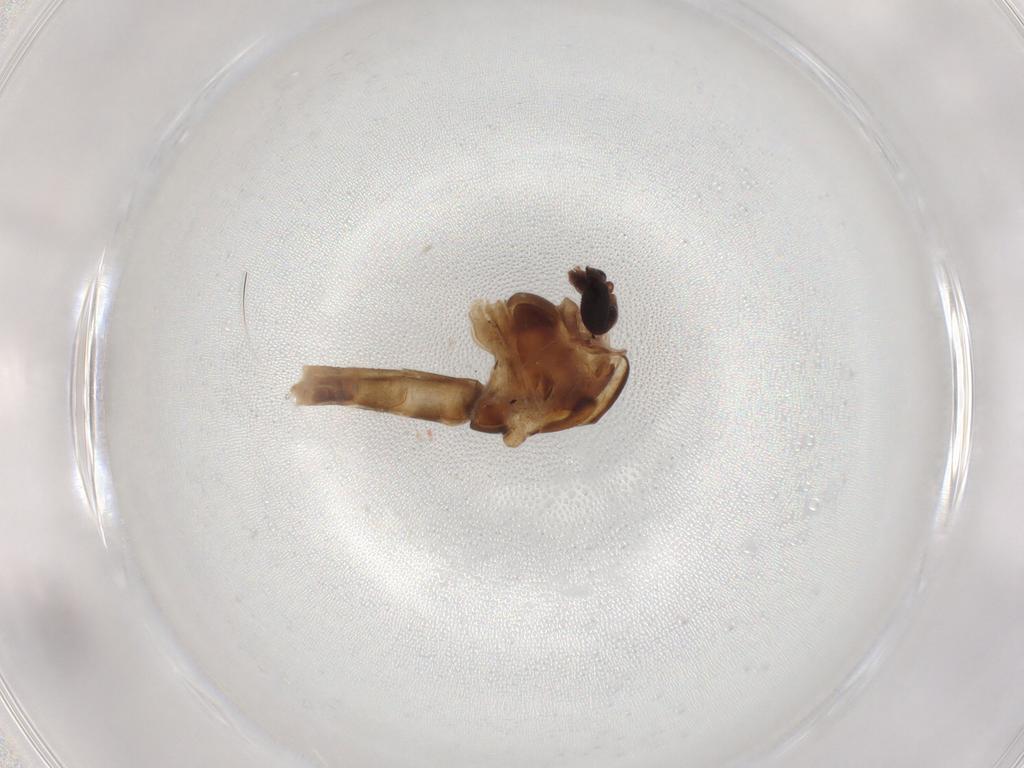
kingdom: Animalia
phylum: Arthropoda
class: Insecta
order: Diptera
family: Chironomidae
